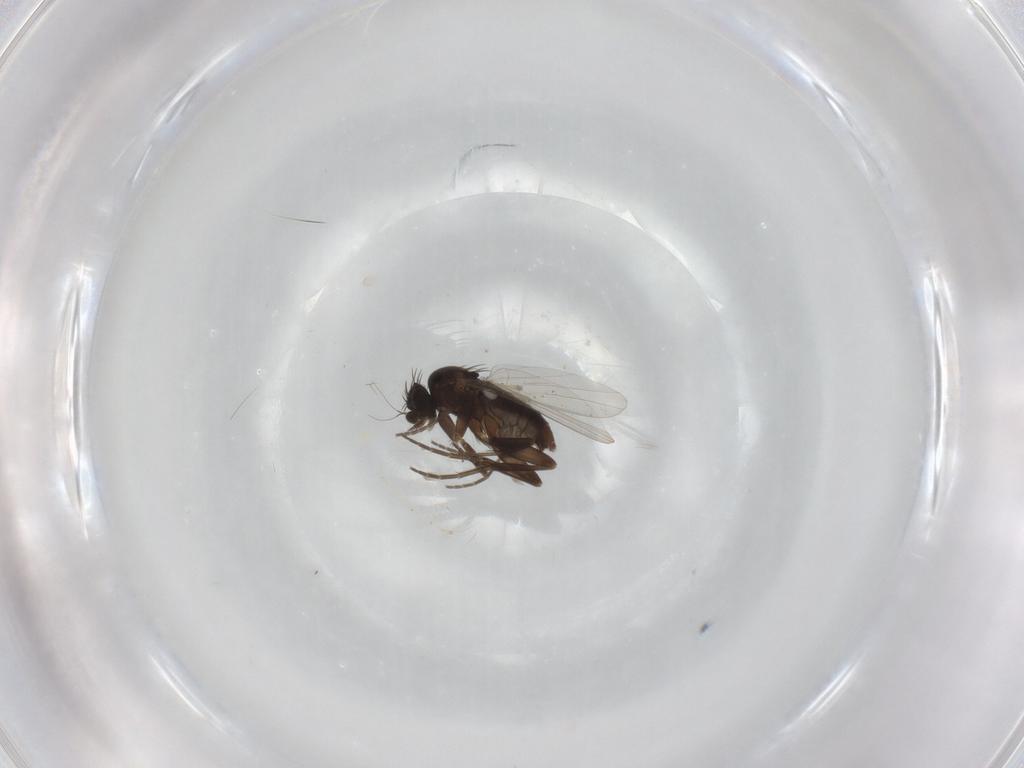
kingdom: Animalia
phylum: Arthropoda
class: Insecta
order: Diptera
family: Phoridae
